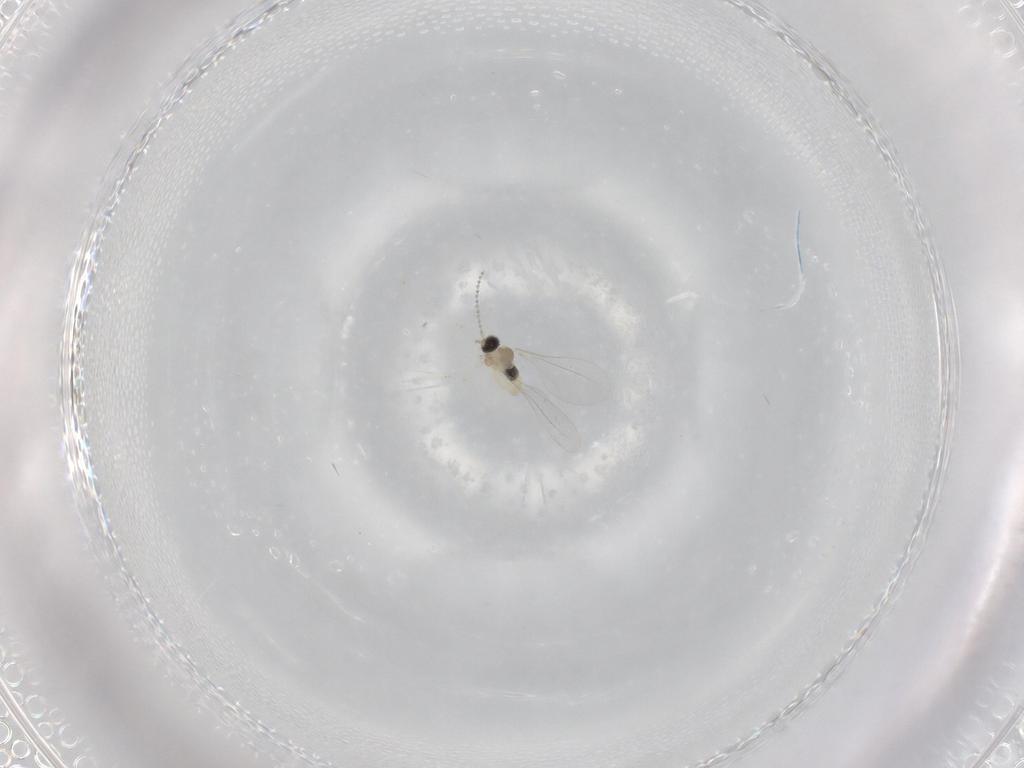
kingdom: Animalia
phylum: Arthropoda
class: Insecta
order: Diptera
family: Cecidomyiidae
